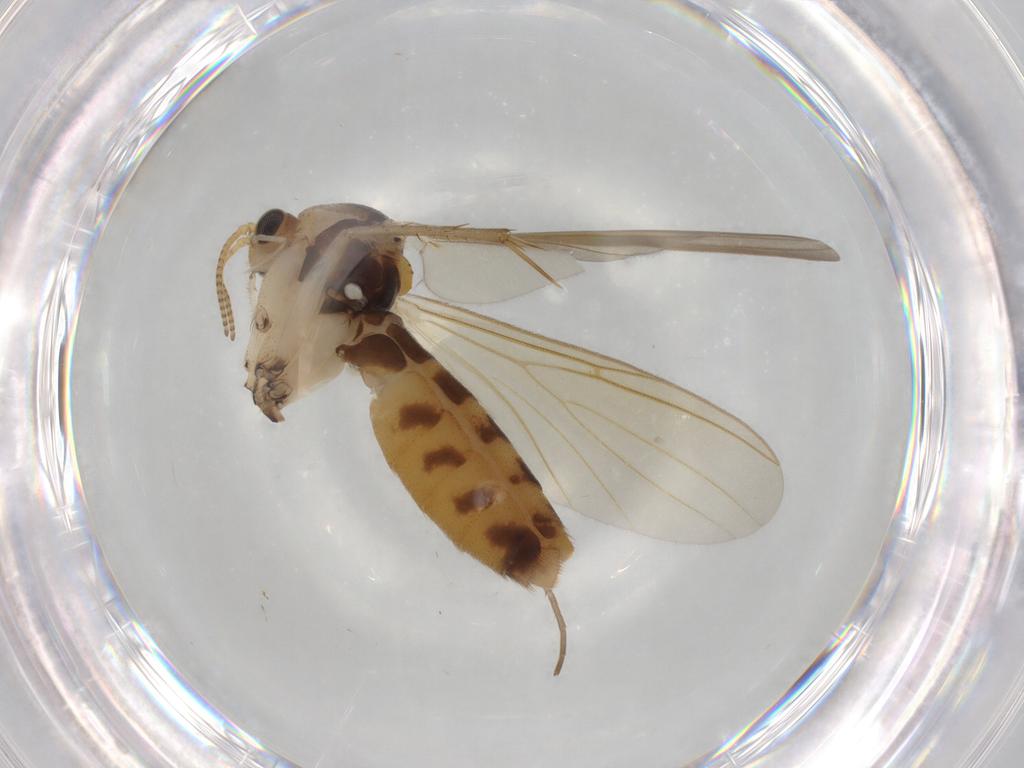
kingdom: Animalia
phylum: Arthropoda
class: Insecta
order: Diptera
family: Mycetophilidae
